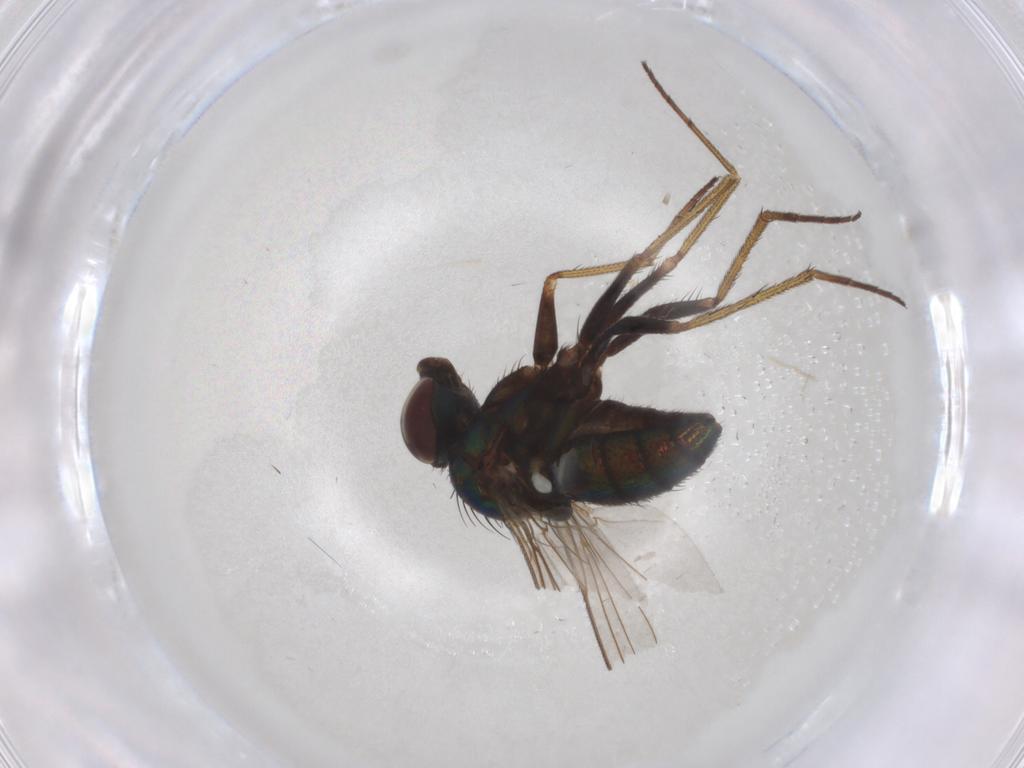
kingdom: Animalia
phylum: Arthropoda
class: Insecta
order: Diptera
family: Dolichopodidae
